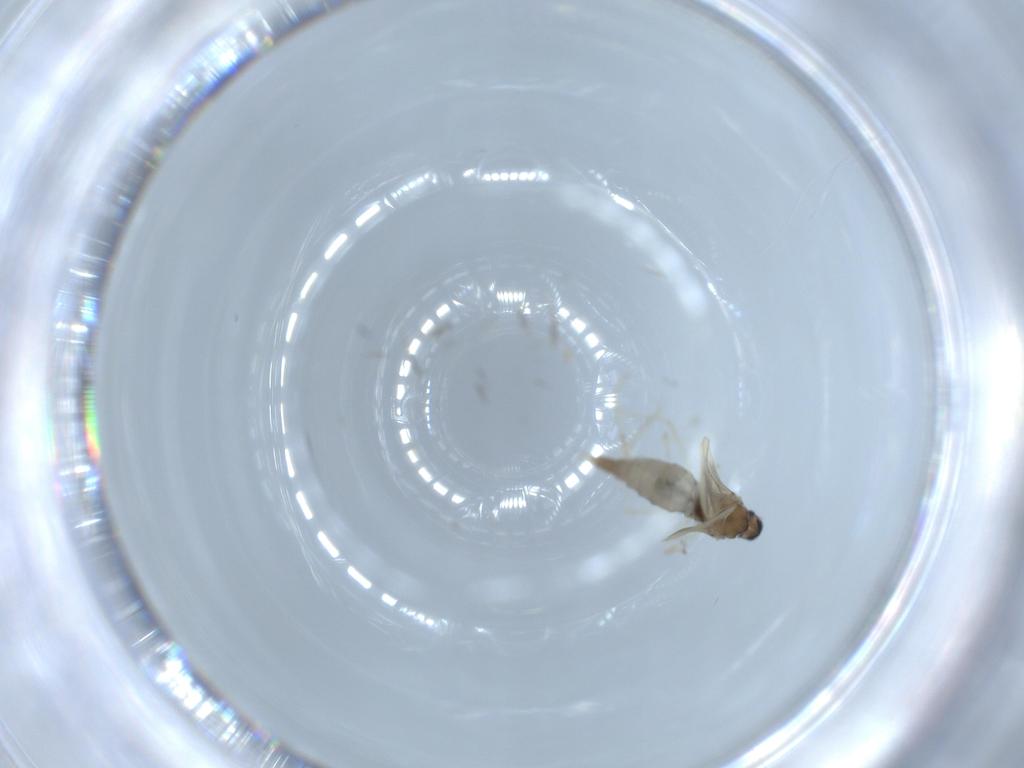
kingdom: Animalia
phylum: Arthropoda
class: Insecta
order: Diptera
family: Cecidomyiidae
